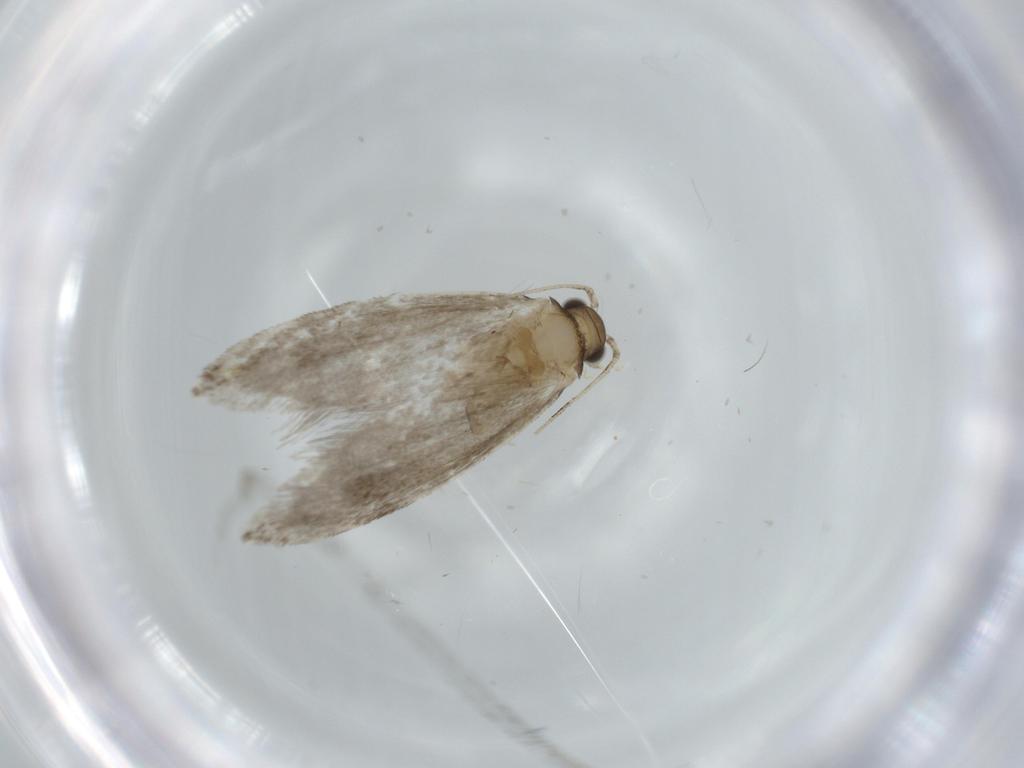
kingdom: Animalia
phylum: Arthropoda
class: Insecta
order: Lepidoptera
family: Tineidae
